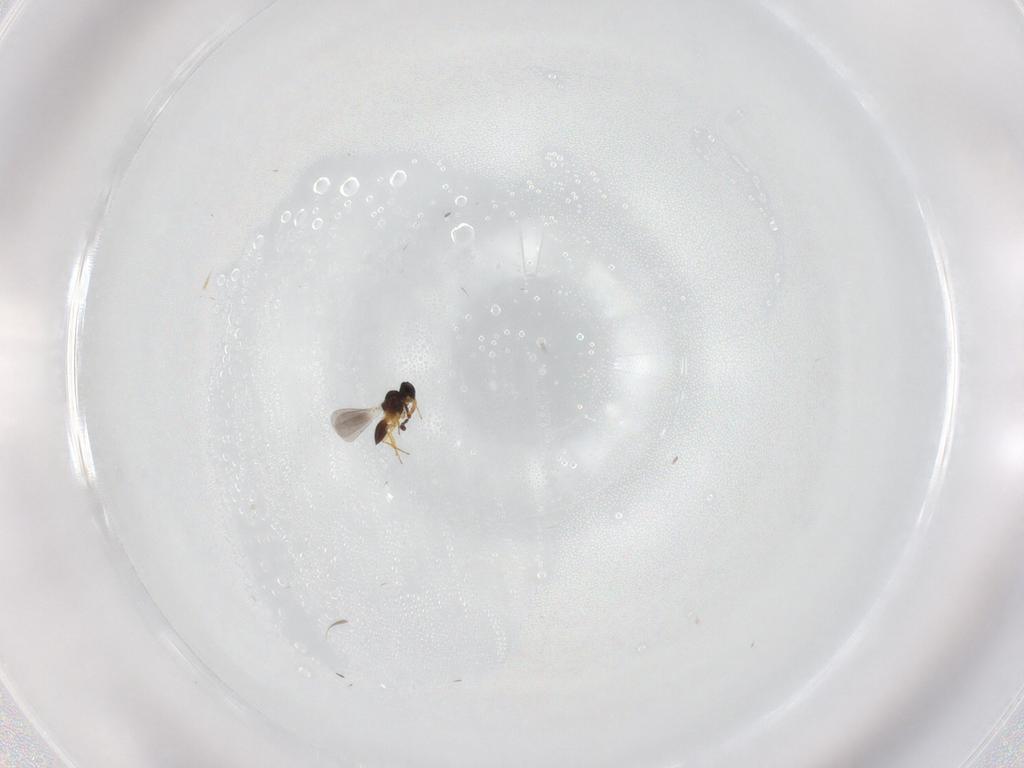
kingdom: Animalia
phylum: Arthropoda
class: Insecta
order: Hymenoptera
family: Platygastridae
